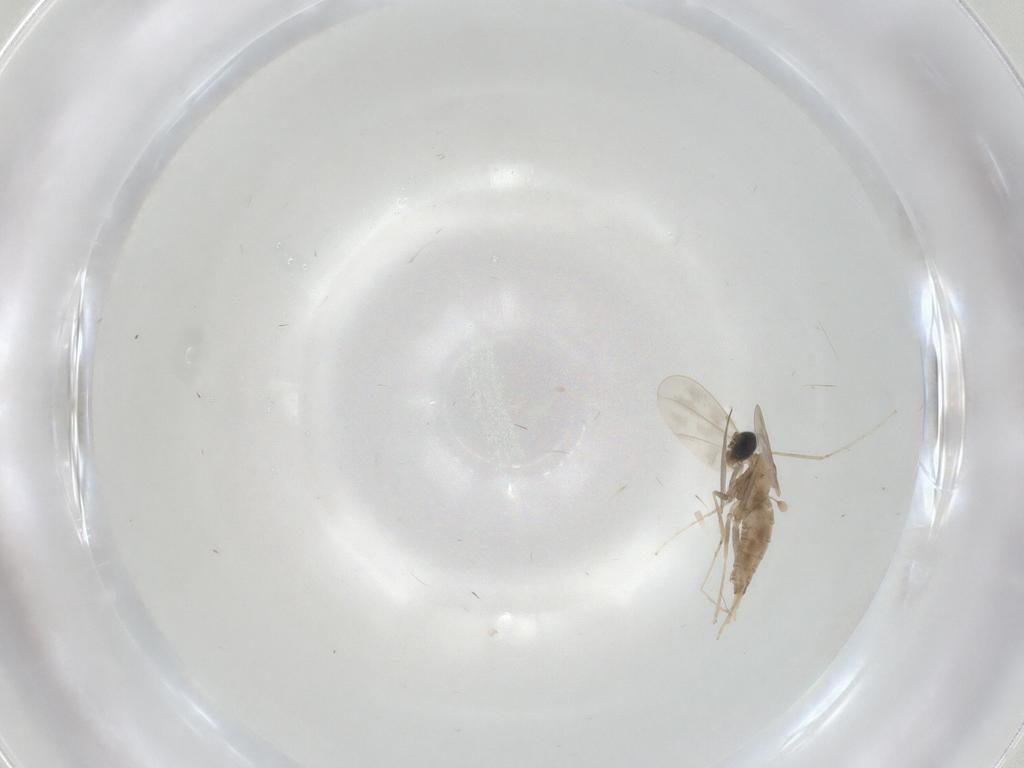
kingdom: Animalia
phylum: Arthropoda
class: Insecta
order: Diptera
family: Cecidomyiidae
